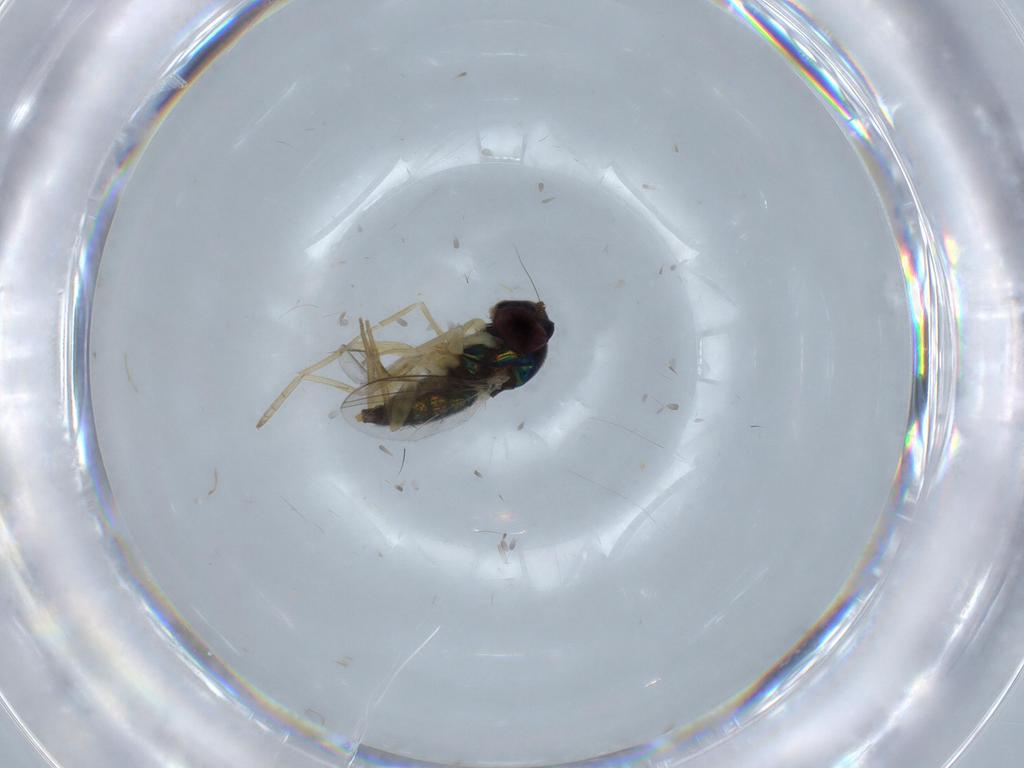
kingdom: Animalia
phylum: Arthropoda
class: Insecta
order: Diptera
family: Dolichopodidae
